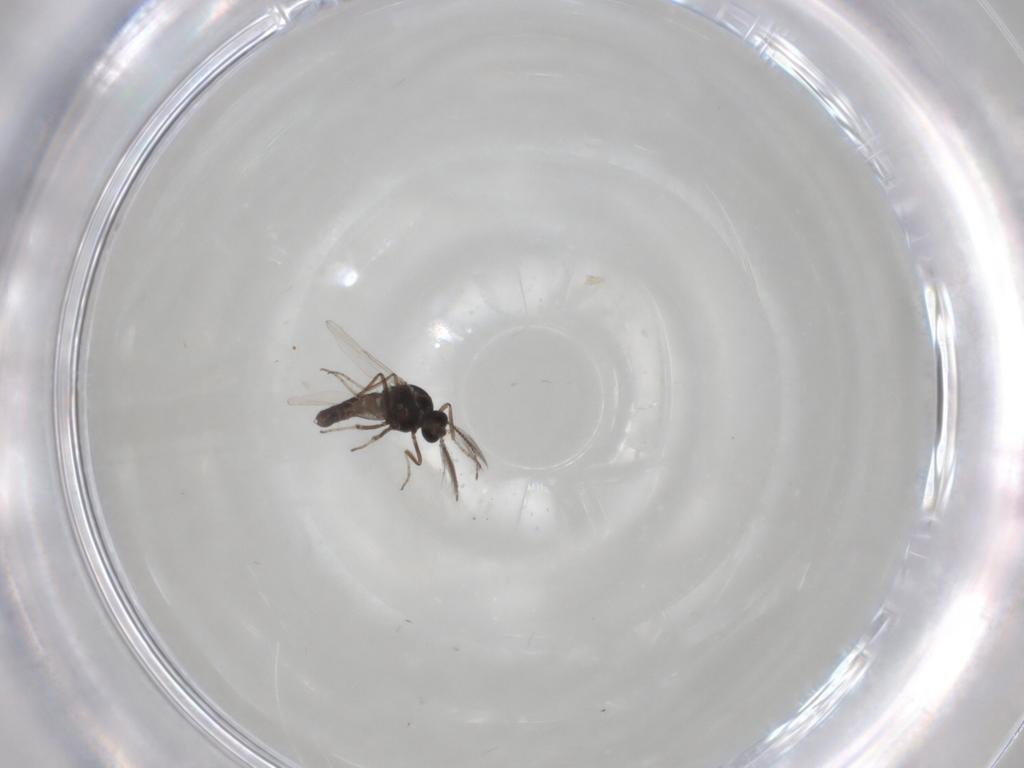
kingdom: Animalia
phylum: Arthropoda
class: Insecta
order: Diptera
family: Ceratopogonidae
